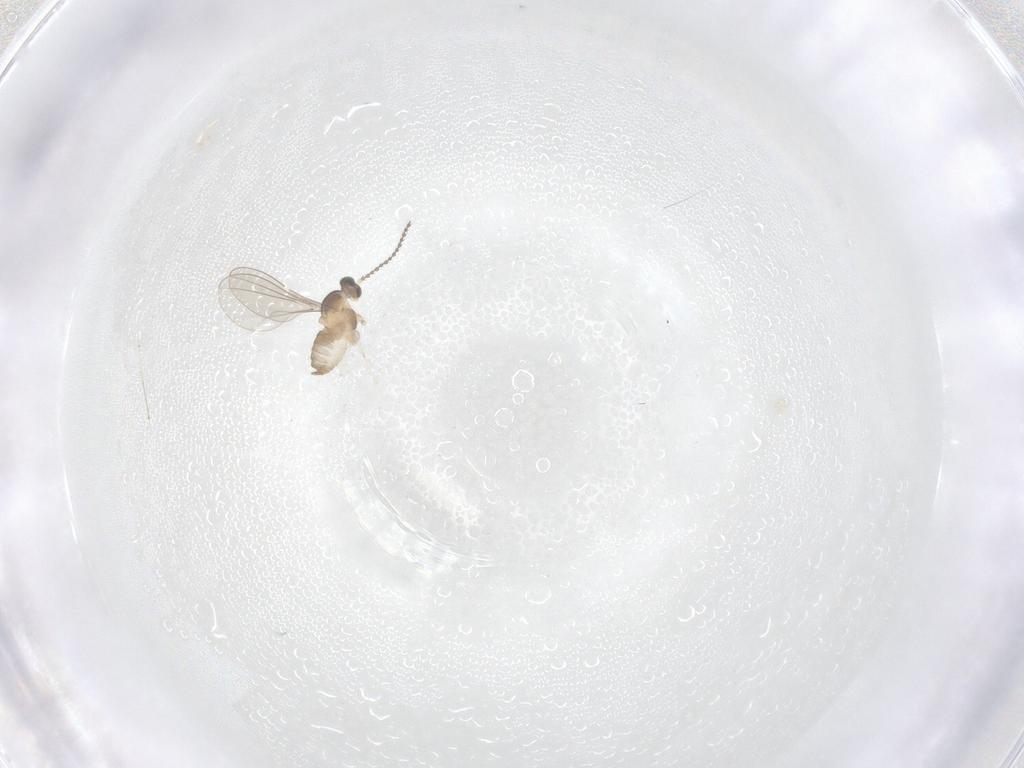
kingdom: Animalia
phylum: Arthropoda
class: Insecta
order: Diptera
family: Cecidomyiidae
